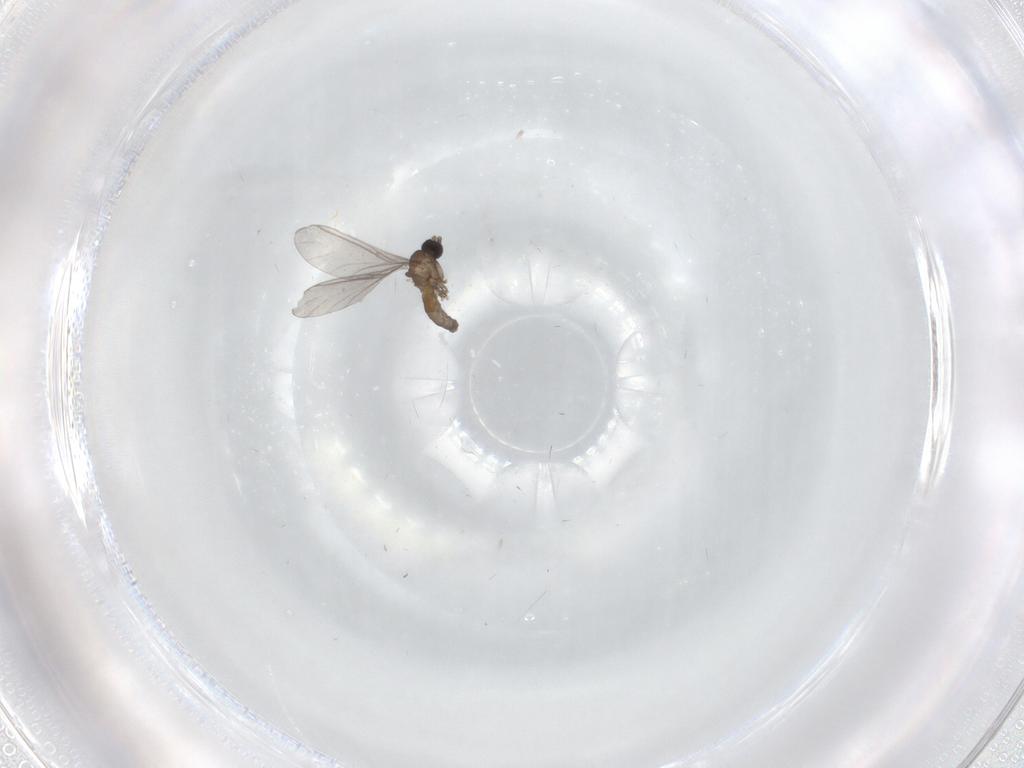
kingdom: Animalia
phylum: Arthropoda
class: Insecta
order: Diptera
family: Sciaridae
